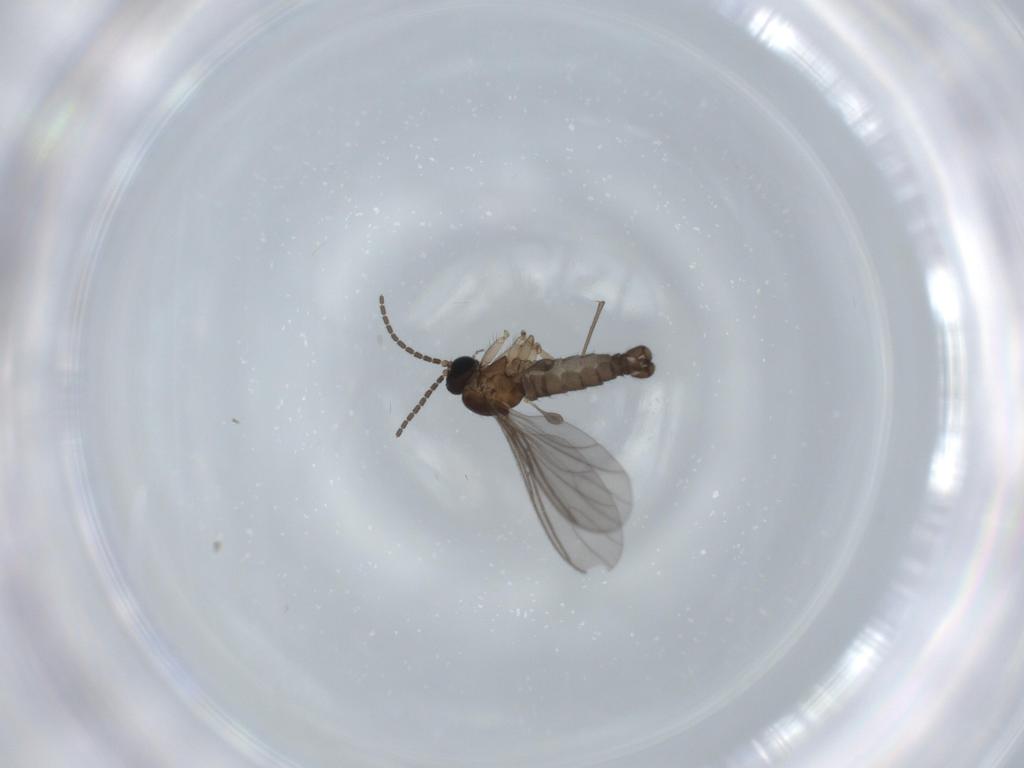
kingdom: Animalia
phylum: Arthropoda
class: Insecta
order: Diptera
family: Sciaridae
